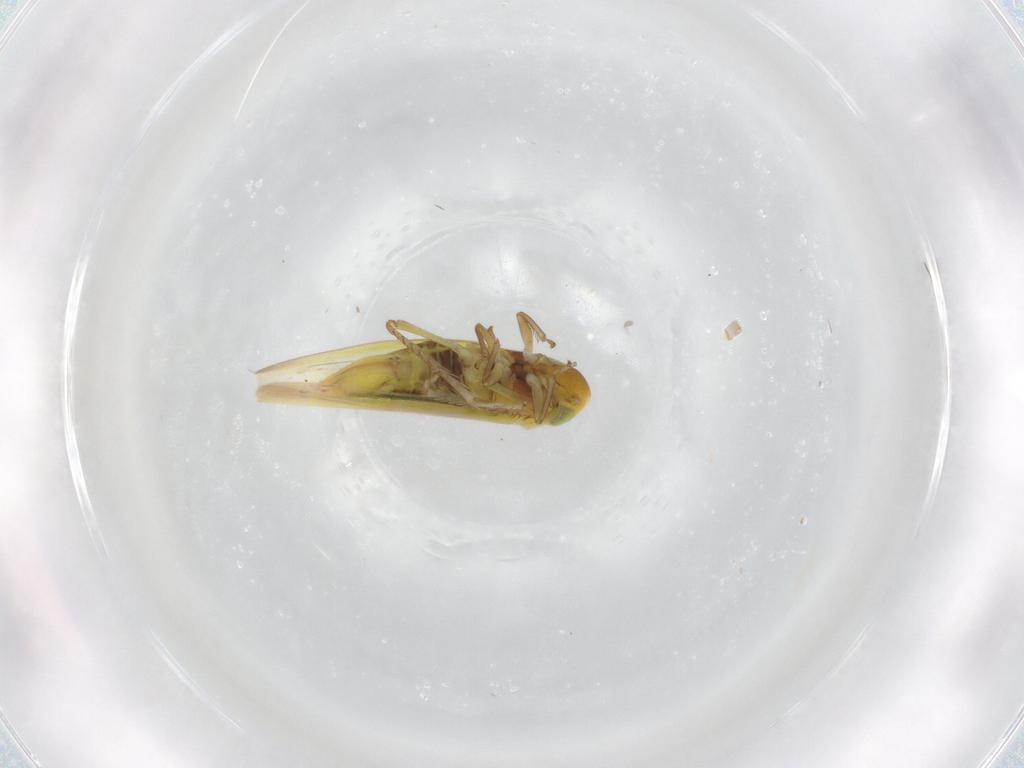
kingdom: Animalia
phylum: Arthropoda
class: Insecta
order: Hemiptera
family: Cicadellidae
